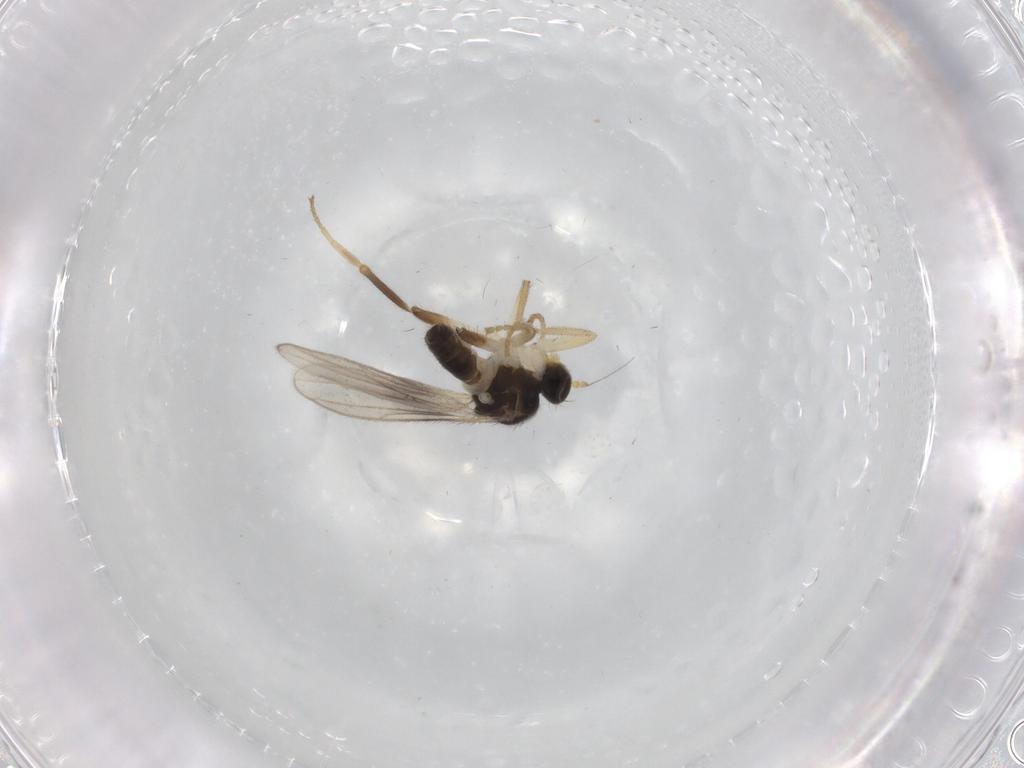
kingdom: Animalia
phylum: Arthropoda
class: Insecta
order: Diptera
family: Hybotidae
